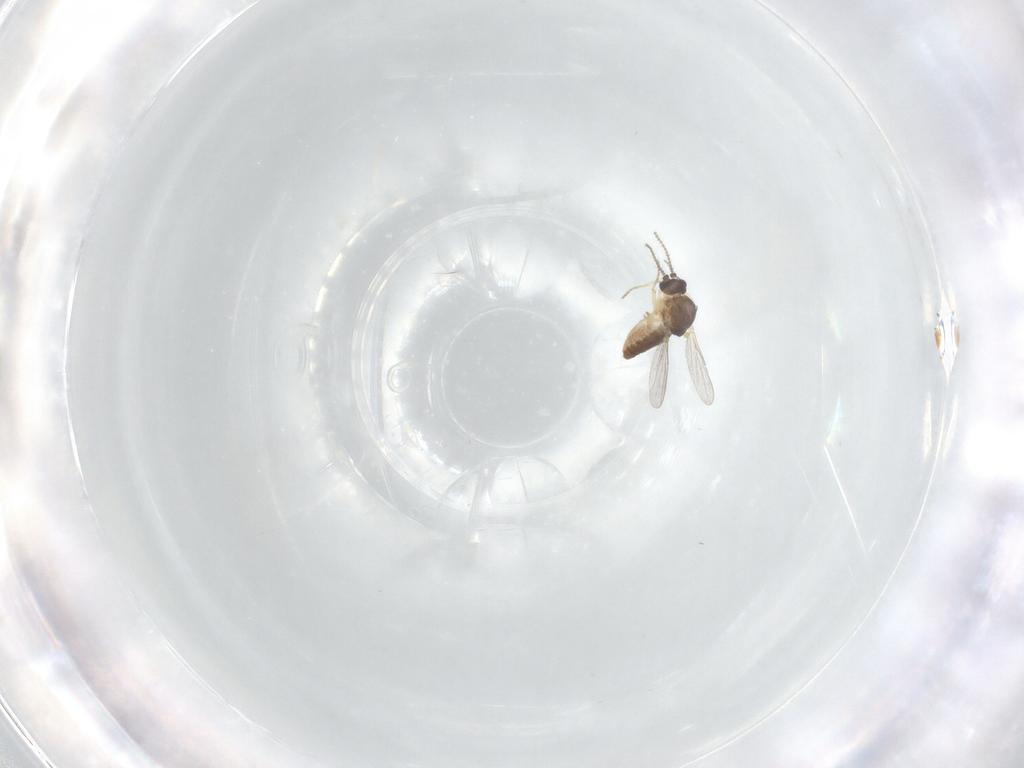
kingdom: Animalia
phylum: Arthropoda
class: Insecta
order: Diptera
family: Ceratopogonidae
